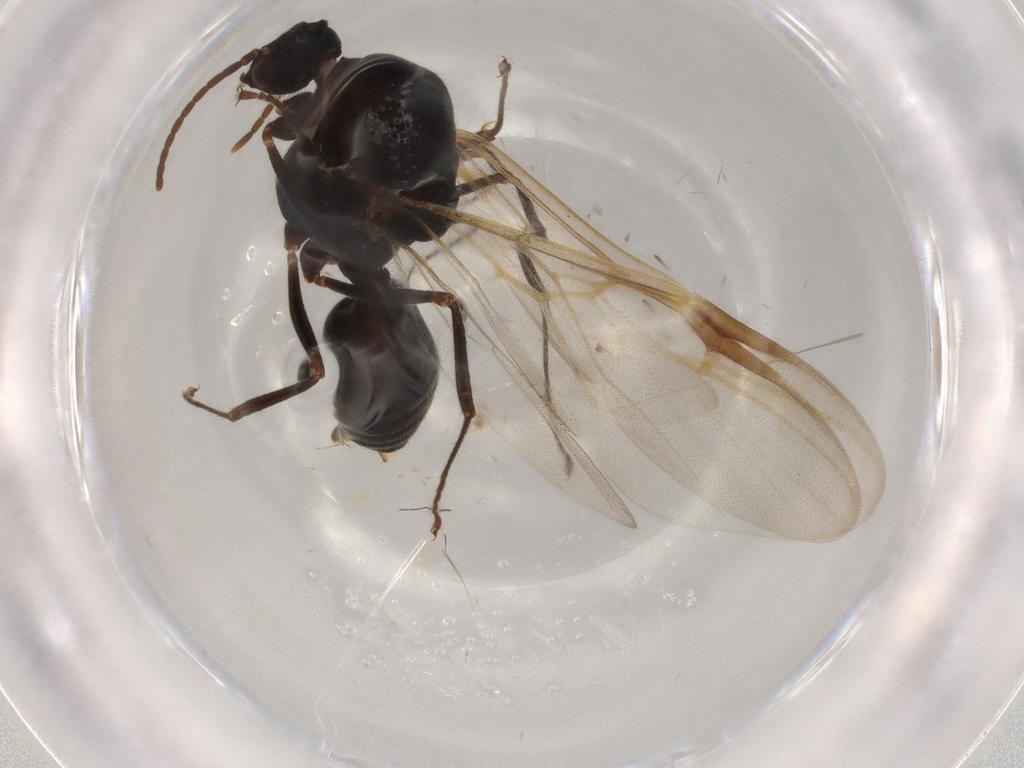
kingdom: Animalia
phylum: Arthropoda
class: Insecta
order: Hymenoptera
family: Formicidae
